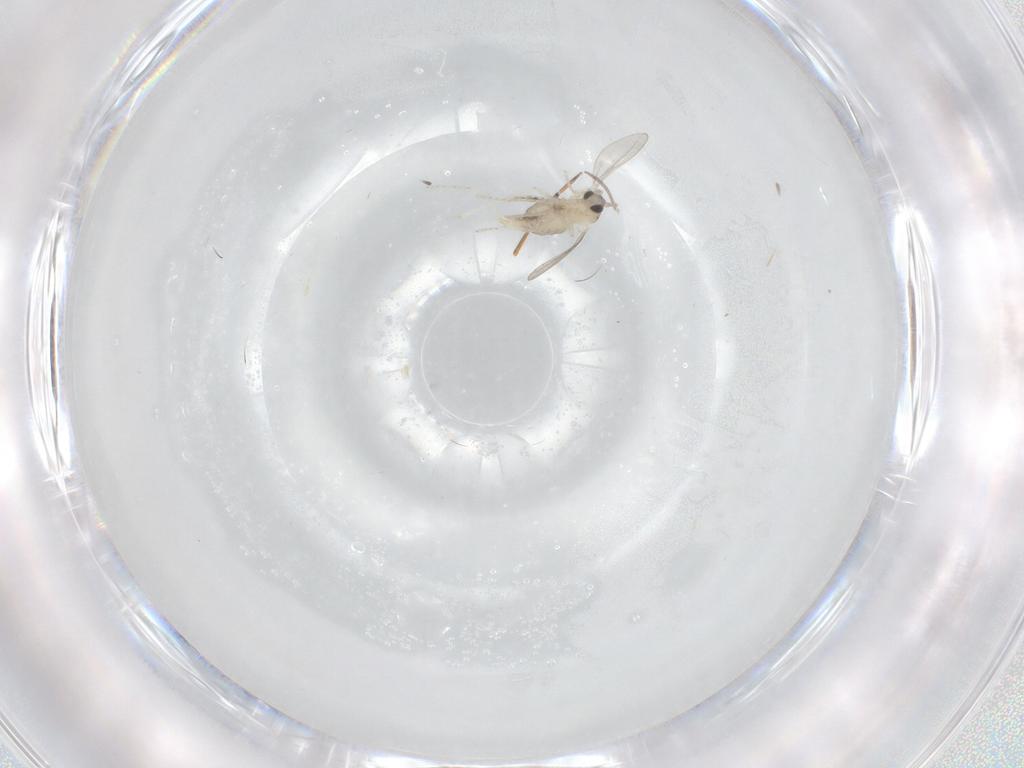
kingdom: Animalia
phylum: Arthropoda
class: Insecta
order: Diptera
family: Cecidomyiidae
